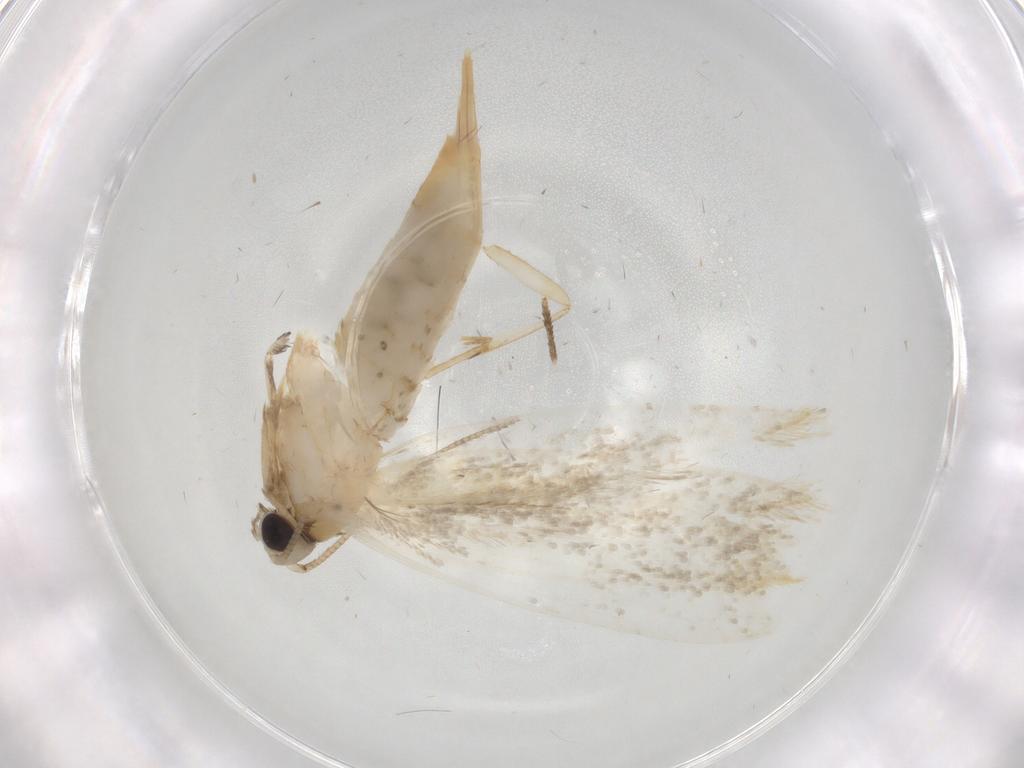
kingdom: Animalia
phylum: Arthropoda
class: Insecta
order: Lepidoptera
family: Tineidae
